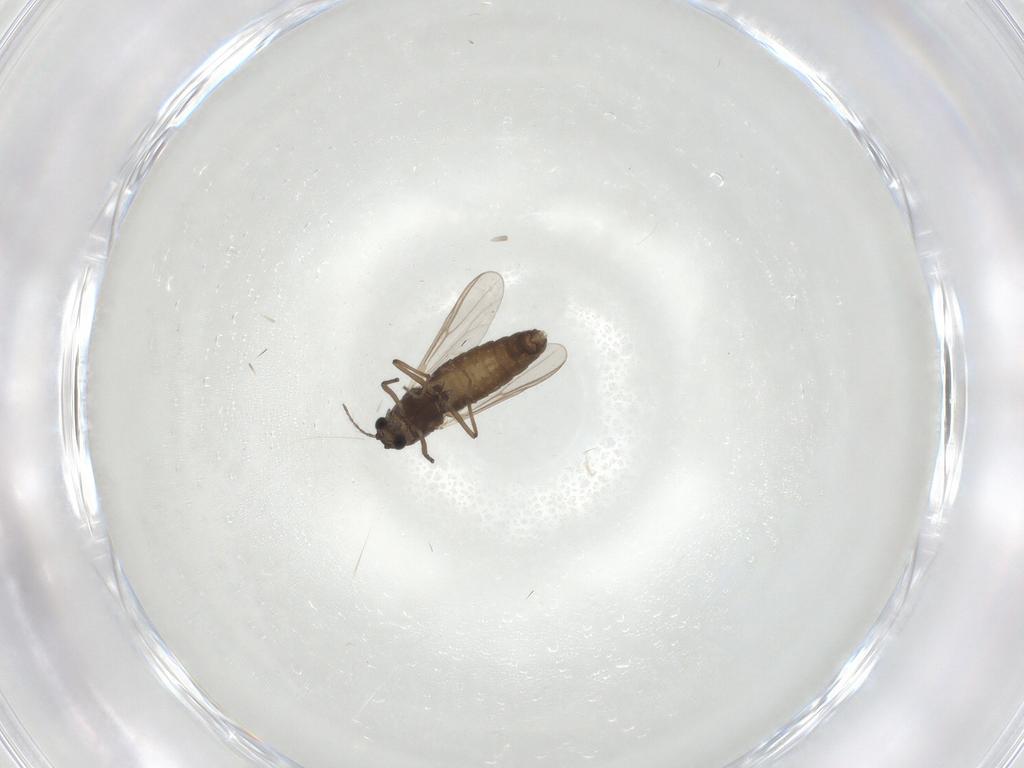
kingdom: Animalia
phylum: Arthropoda
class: Insecta
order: Diptera
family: Chironomidae
